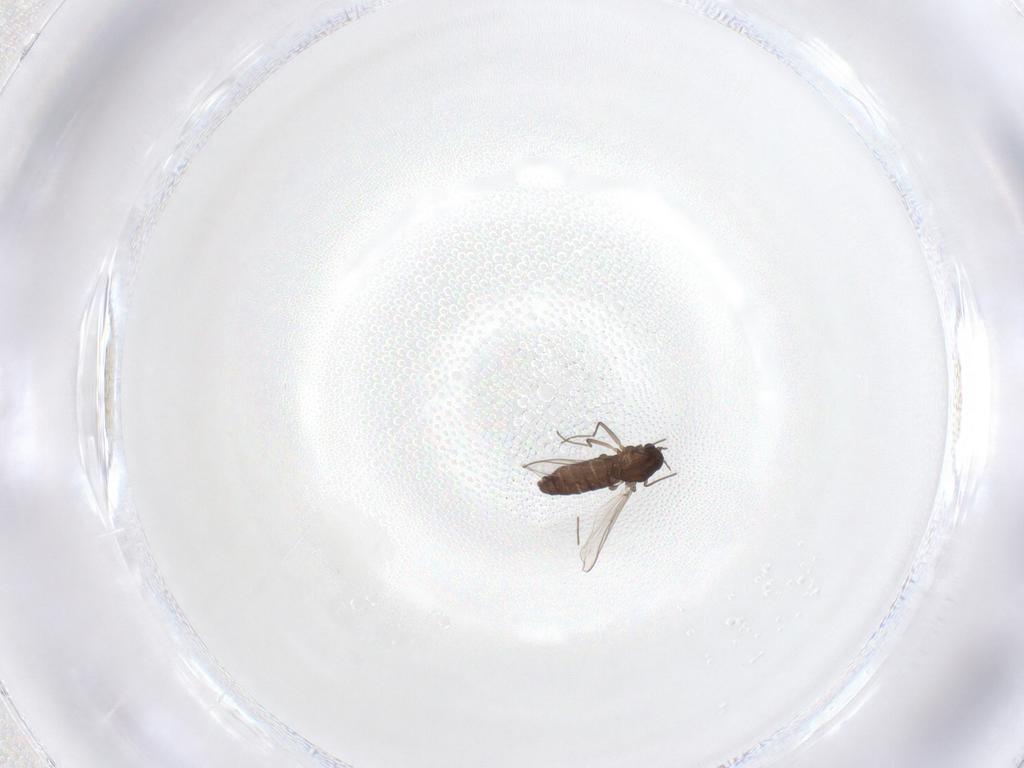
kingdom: Animalia
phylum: Arthropoda
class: Insecta
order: Diptera
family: Chironomidae
